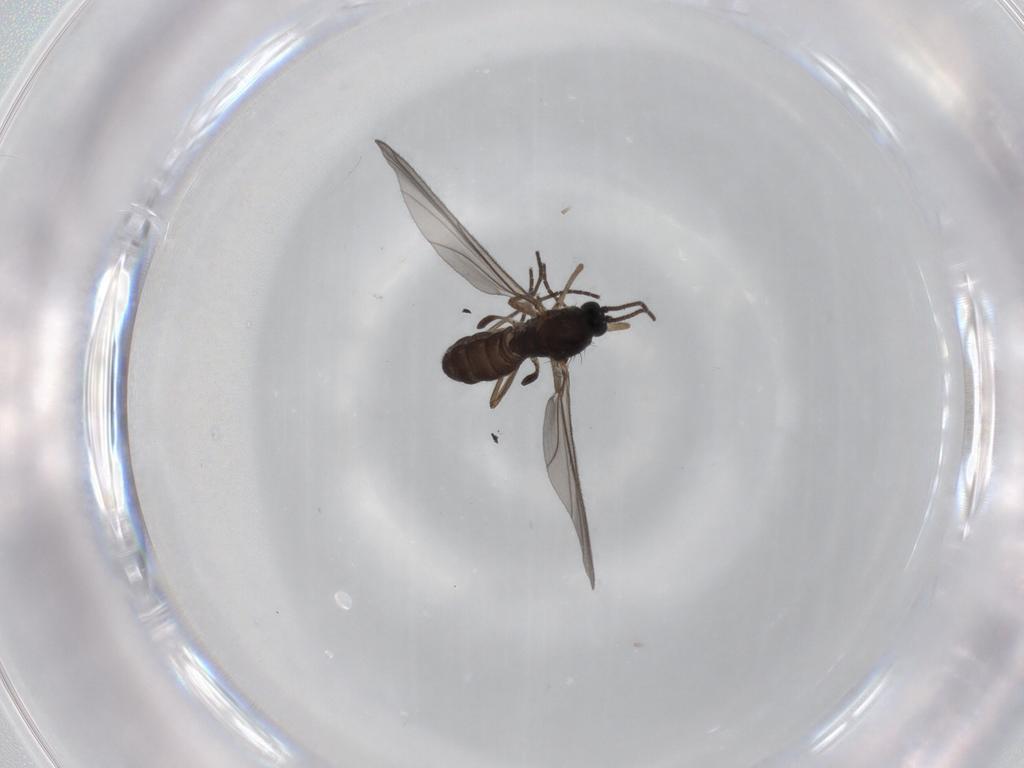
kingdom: Animalia
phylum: Arthropoda
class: Insecta
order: Diptera
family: Sciaridae
